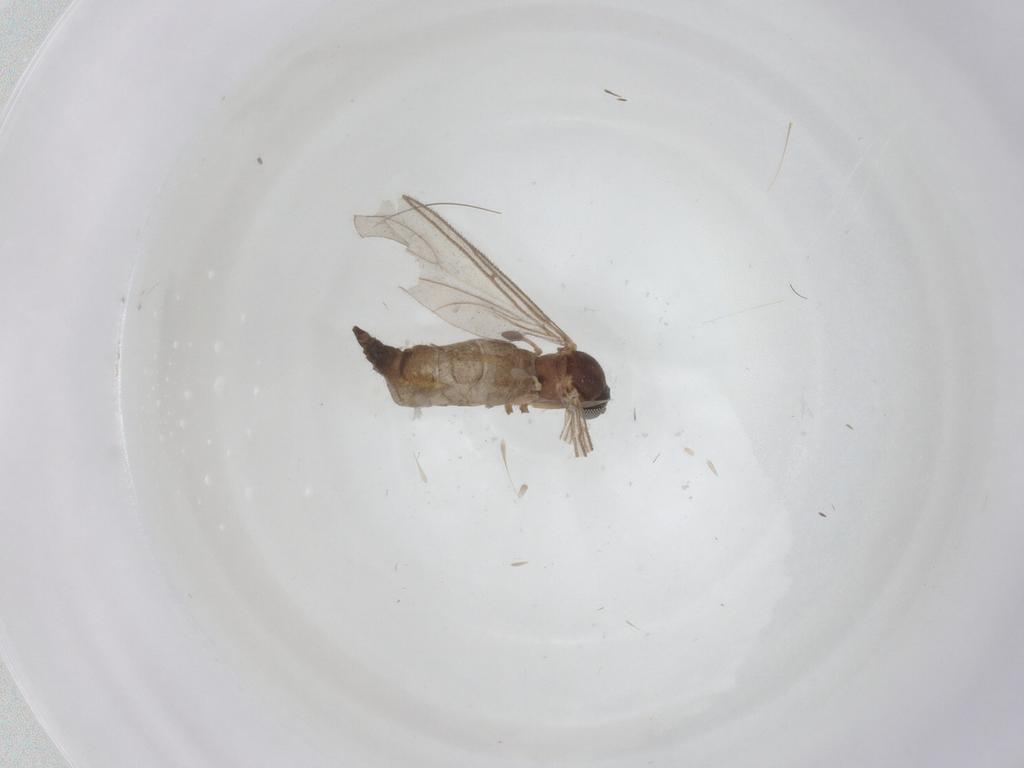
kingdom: Animalia
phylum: Arthropoda
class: Insecta
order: Diptera
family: Sciaridae
